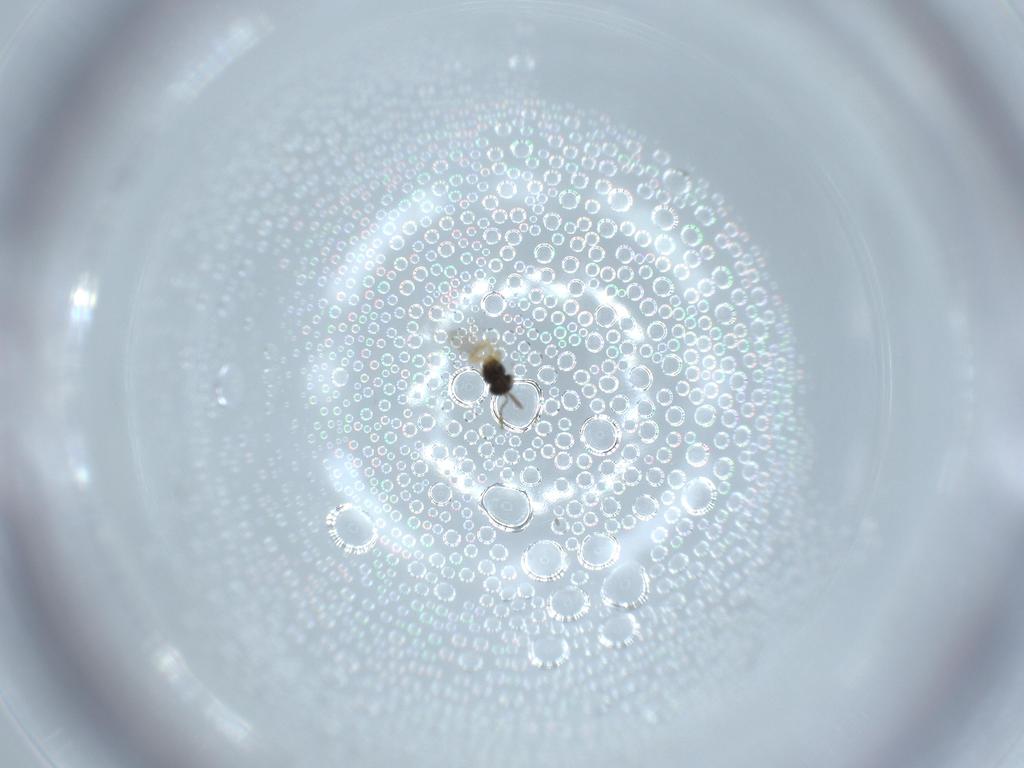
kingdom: Animalia
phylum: Arthropoda
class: Insecta
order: Hymenoptera
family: Scelionidae
